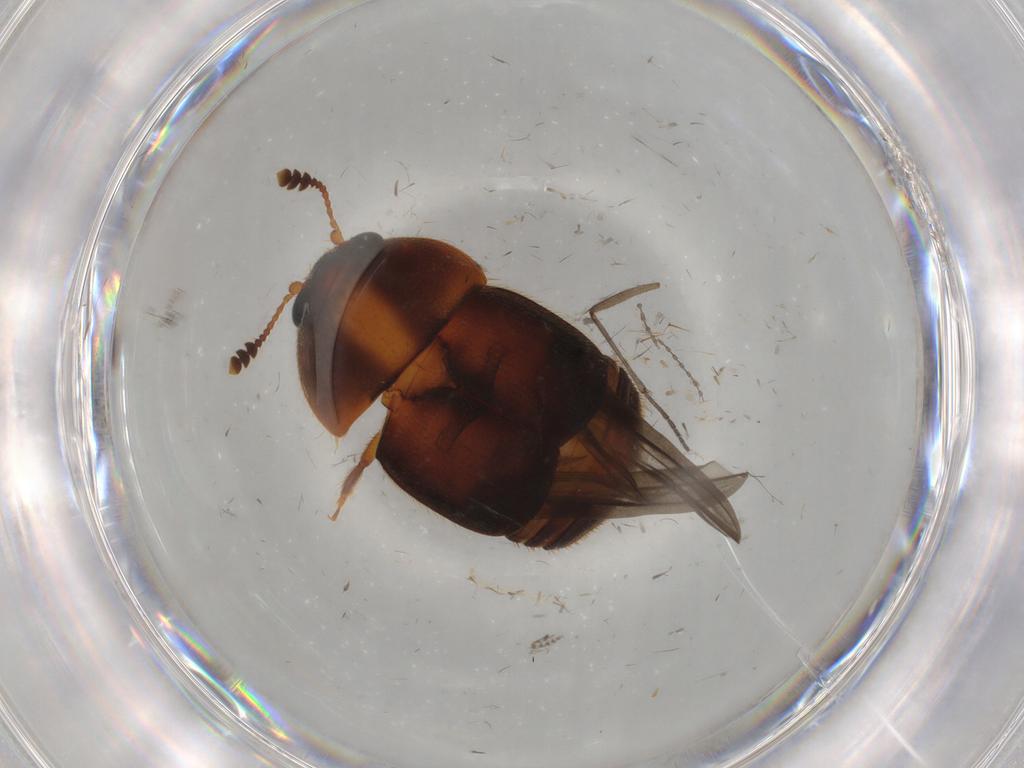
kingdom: Animalia
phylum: Arthropoda
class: Insecta
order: Coleoptera
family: Nitidulidae
